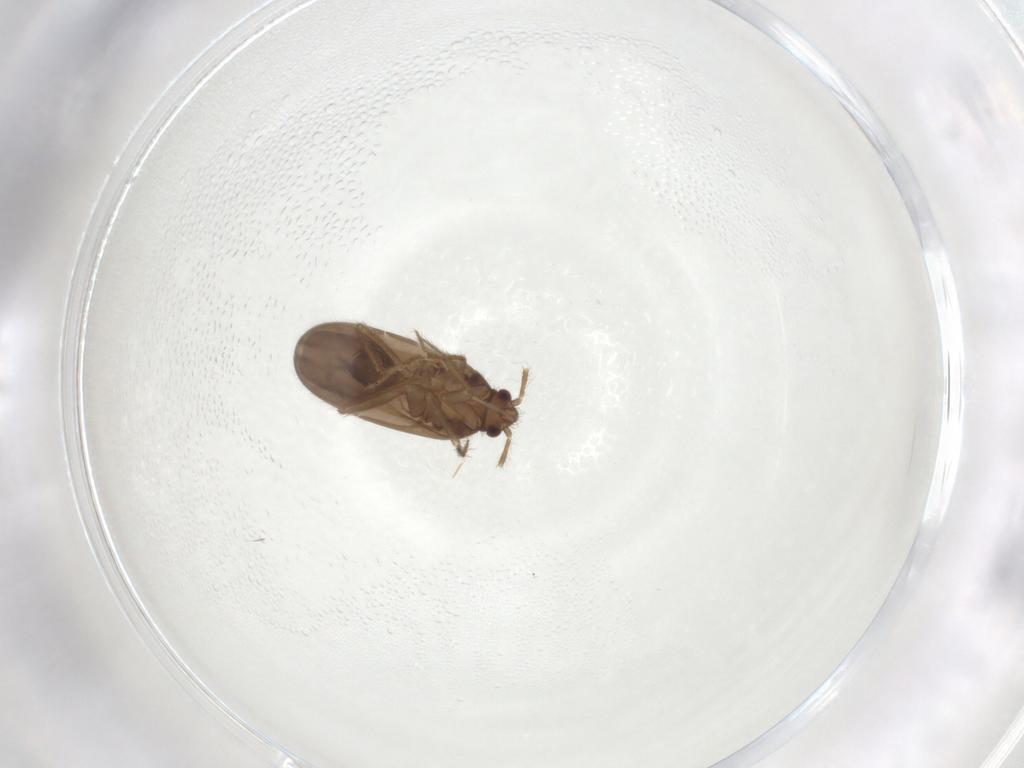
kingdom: Animalia
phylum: Arthropoda
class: Insecta
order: Hemiptera
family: Ceratocombidae
